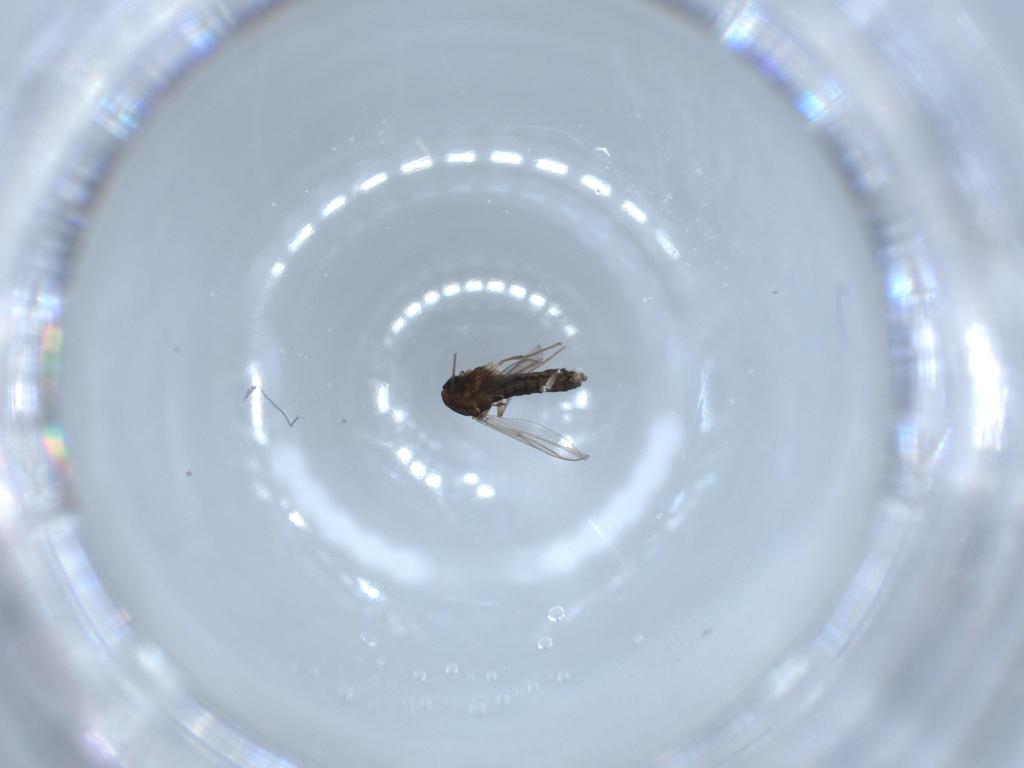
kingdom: Animalia
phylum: Arthropoda
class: Insecta
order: Diptera
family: Chironomidae
